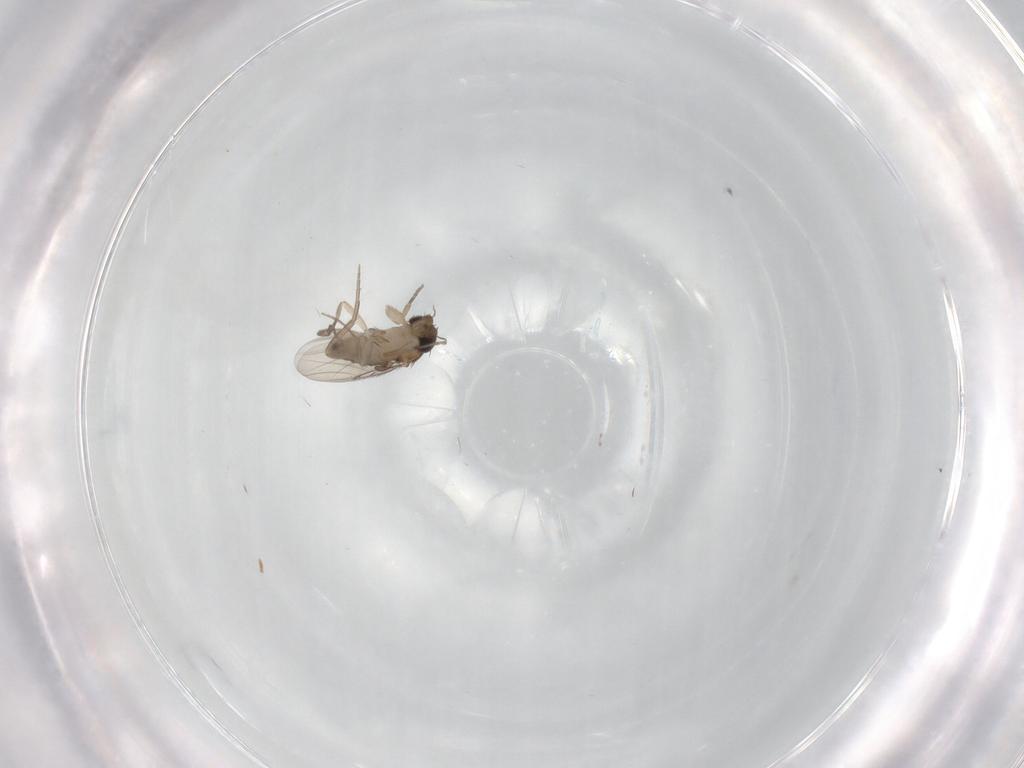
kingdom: Animalia
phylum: Arthropoda
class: Insecta
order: Diptera
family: Phoridae
